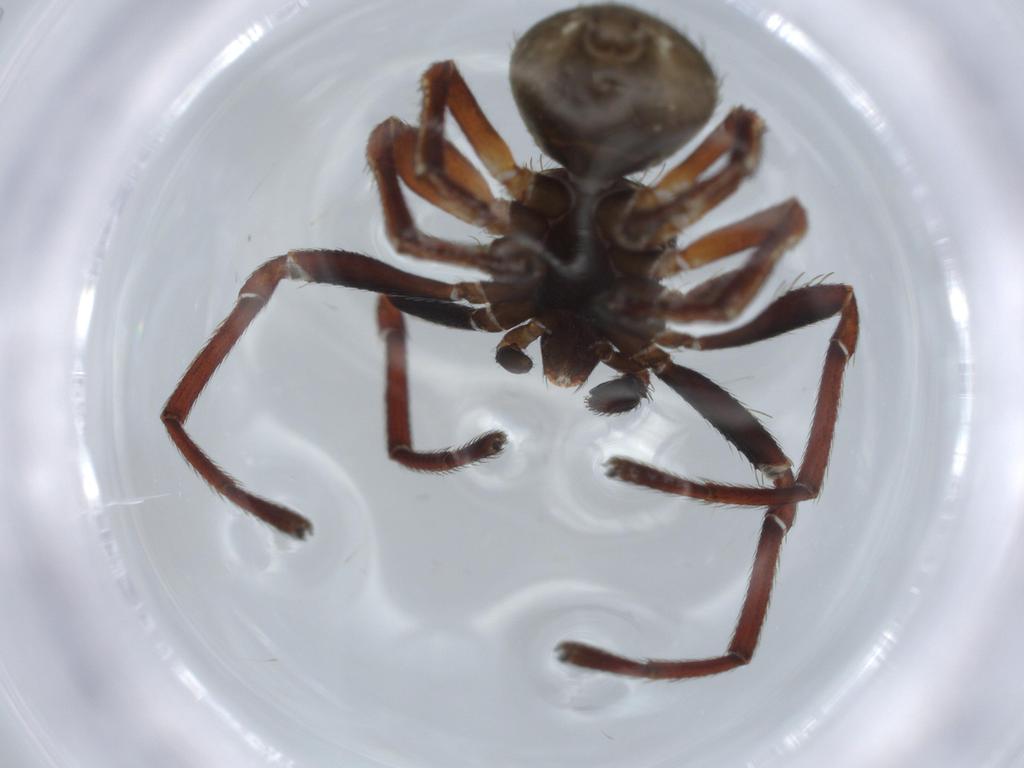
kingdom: Animalia
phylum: Arthropoda
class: Arachnida
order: Araneae
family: Thomisidae
